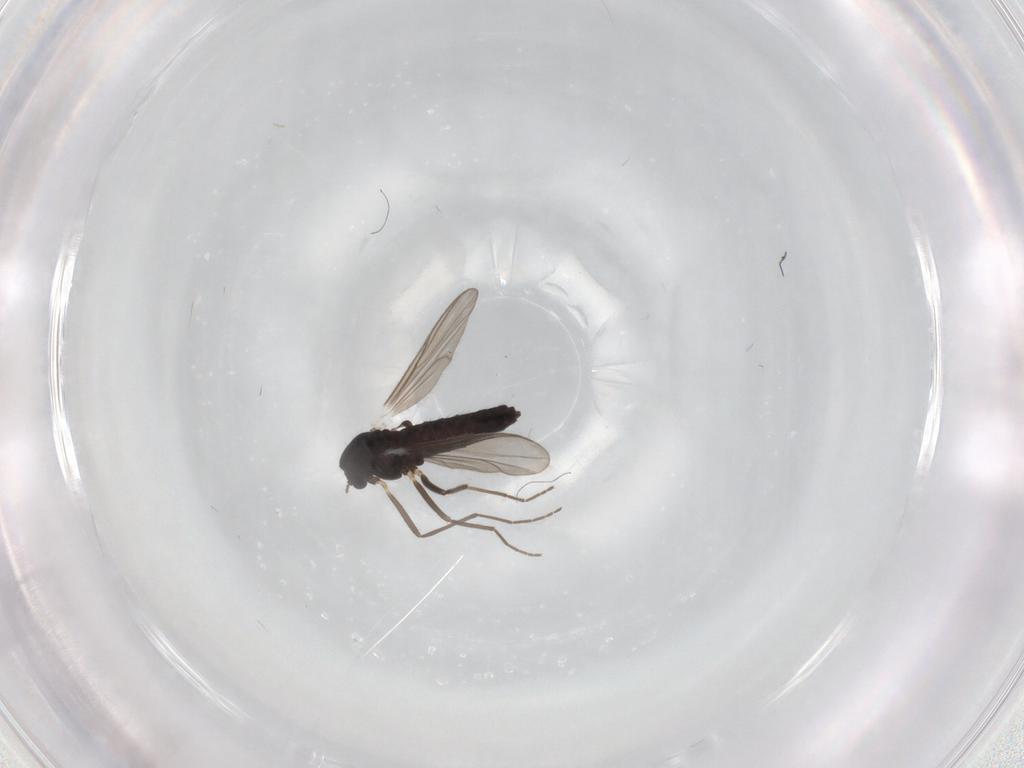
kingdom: Animalia
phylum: Arthropoda
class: Insecta
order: Diptera
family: Chironomidae
